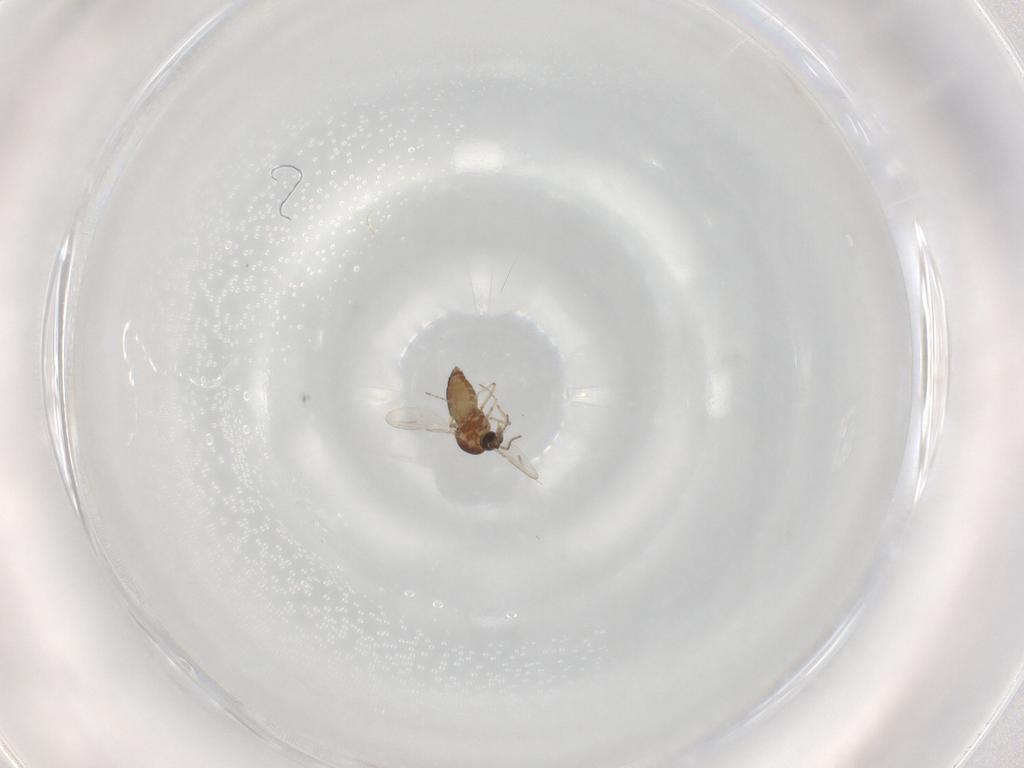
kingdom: Animalia
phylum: Arthropoda
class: Insecta
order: Diptera
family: Ceratopogonidae
